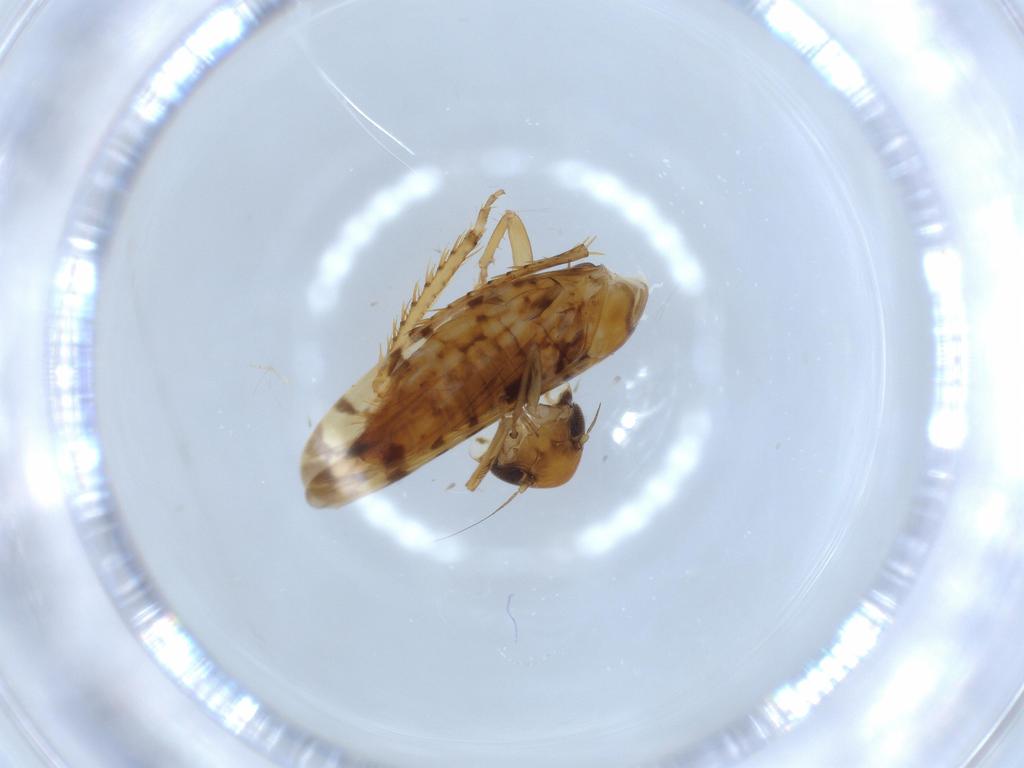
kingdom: Animalia
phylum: Arthropoda
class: Insecta
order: Hemiptera
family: Cicadellidae
